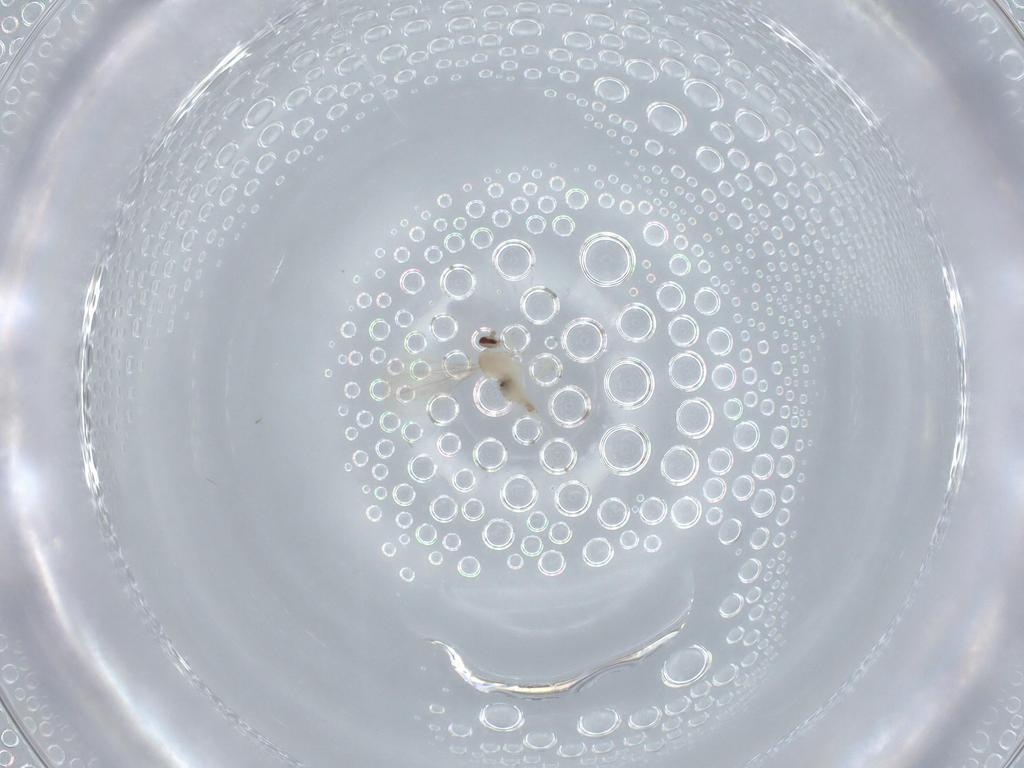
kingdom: Animalia
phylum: Arthropoda
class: Insecta
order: Diptera
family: Cecidomyiidae
